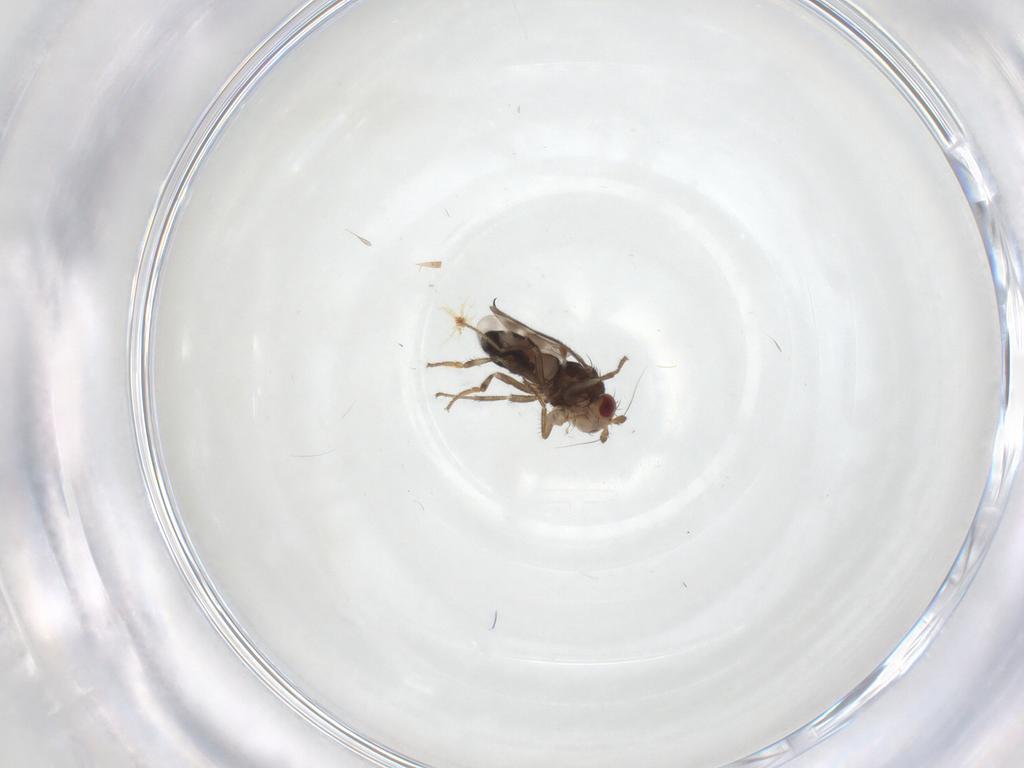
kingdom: Animalia
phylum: Arthropoda
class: Insecta
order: Diptera
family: Sphaeroceridae
